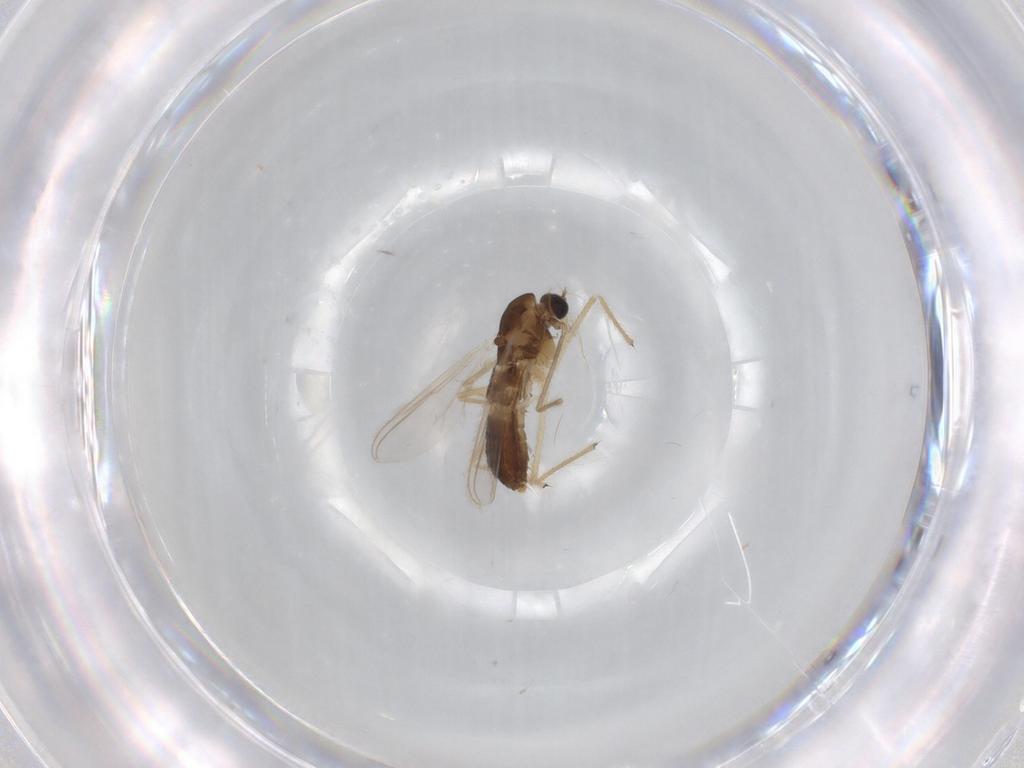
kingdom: Animalia
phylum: Arthropoda
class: Insecta
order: Diptera
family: Chironomidae
